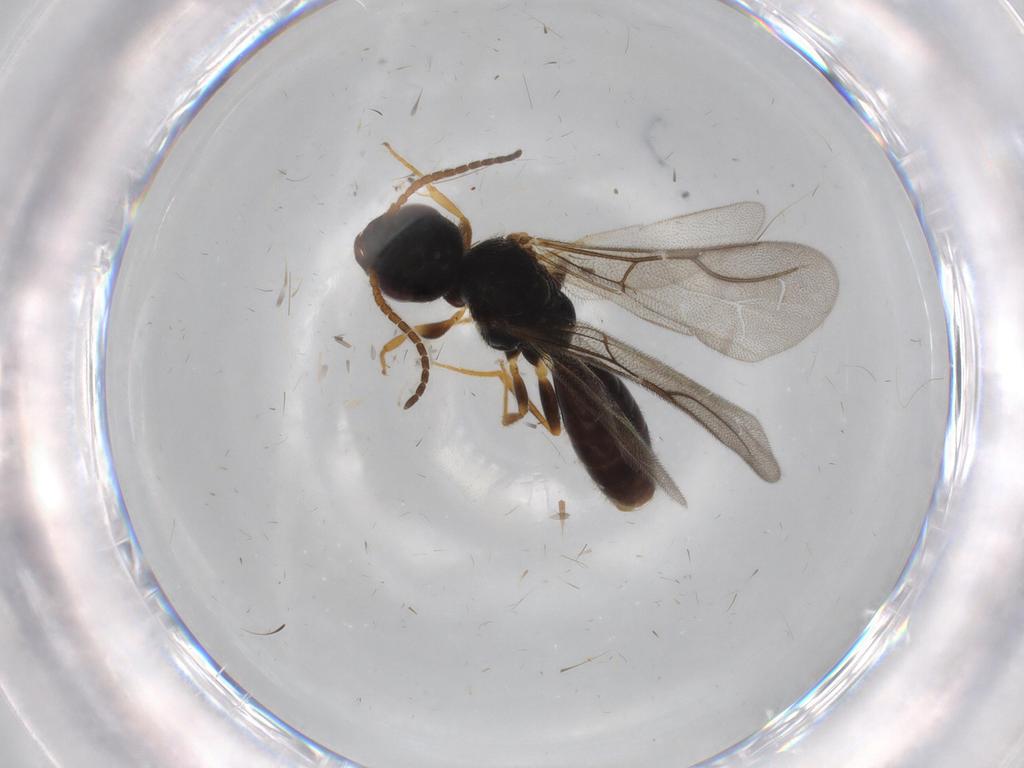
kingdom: Animalia
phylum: Arthropoda
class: Insecta
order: Hymenoptera
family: Bethylidae
